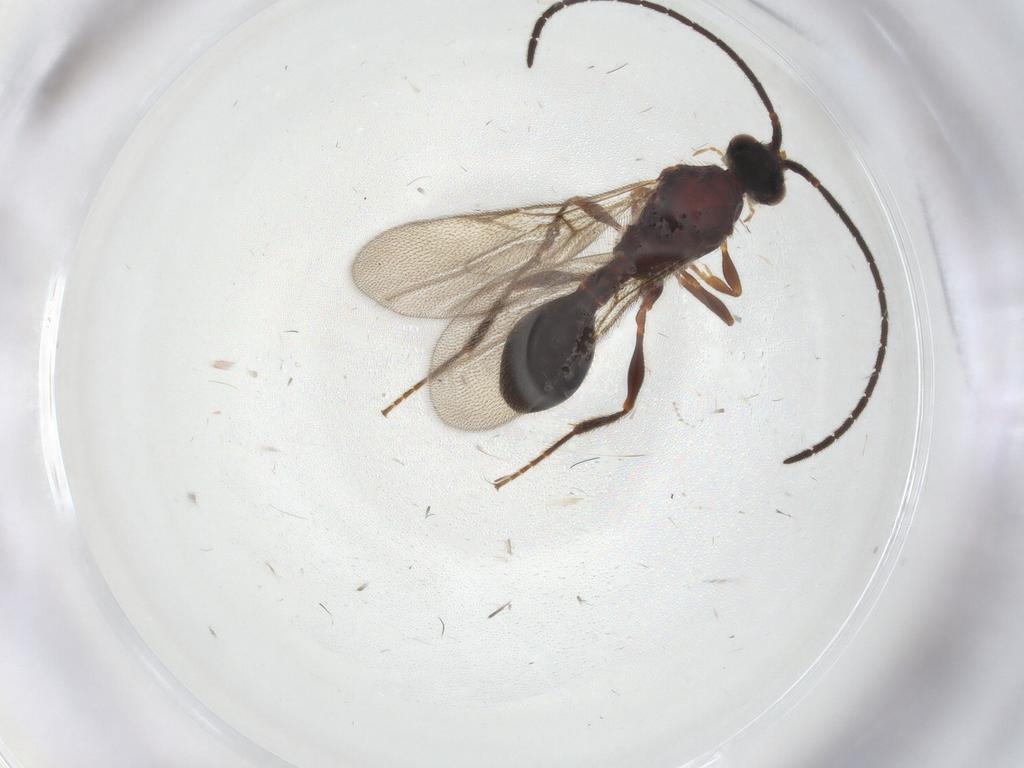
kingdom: Animalia
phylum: Arthropoda
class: Insecta
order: Hymenoptera
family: Diapriidae
